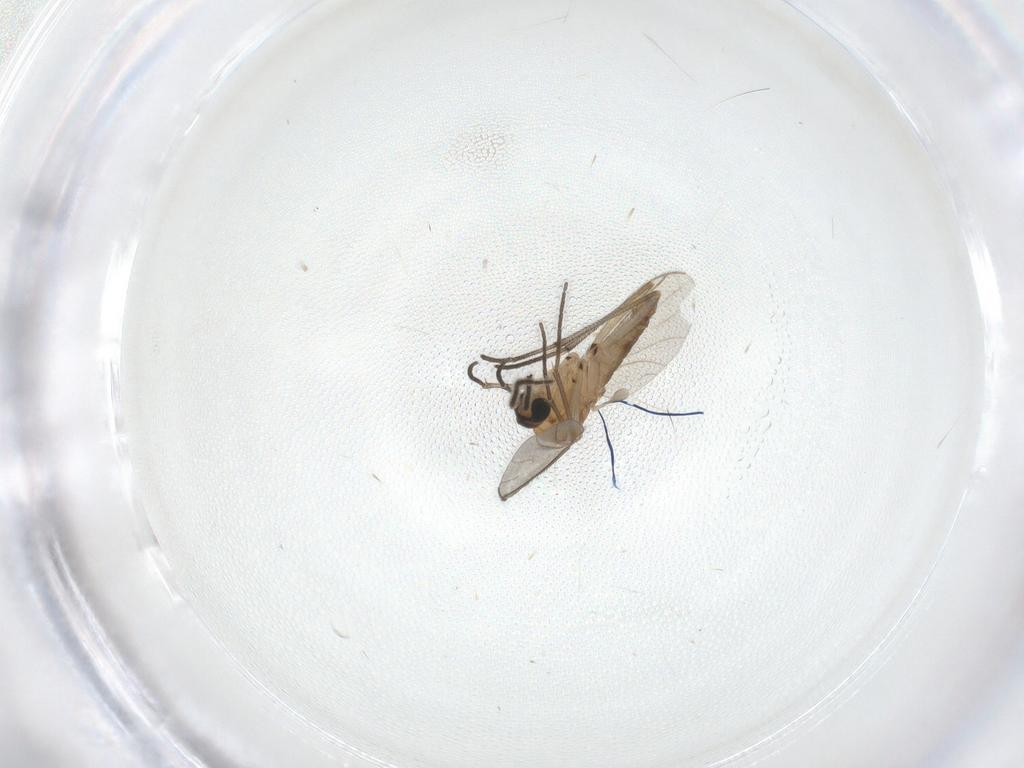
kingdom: Animalia
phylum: Arthropoda
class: Insecta
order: Diptera
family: Sciaridae
